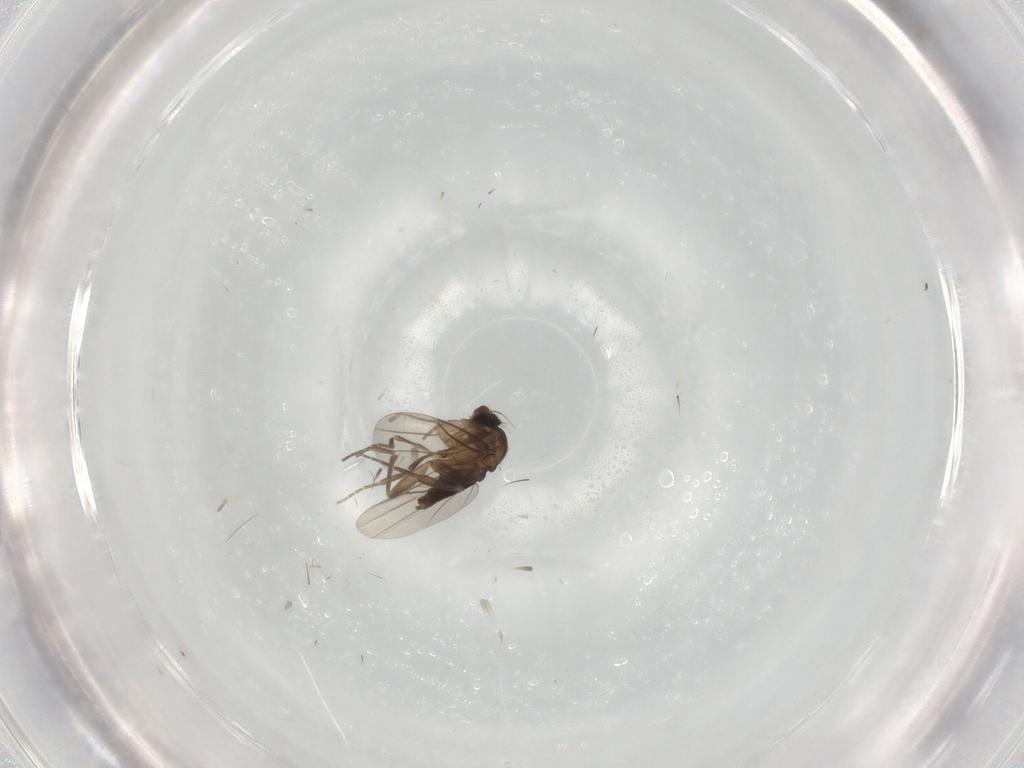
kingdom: Animalia
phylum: Arthropoda
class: Insecta
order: Diptera
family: Phoridae
